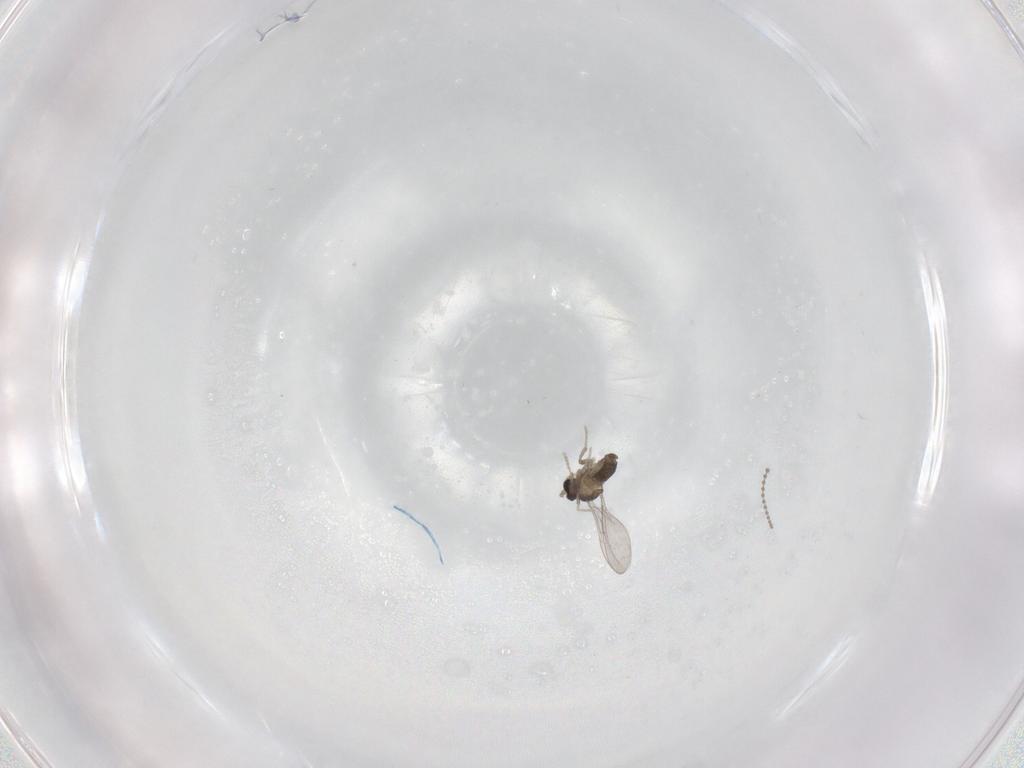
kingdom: Animalia
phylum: Arthropoda
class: Insecta
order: Diptera
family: Cecidomyiidae
